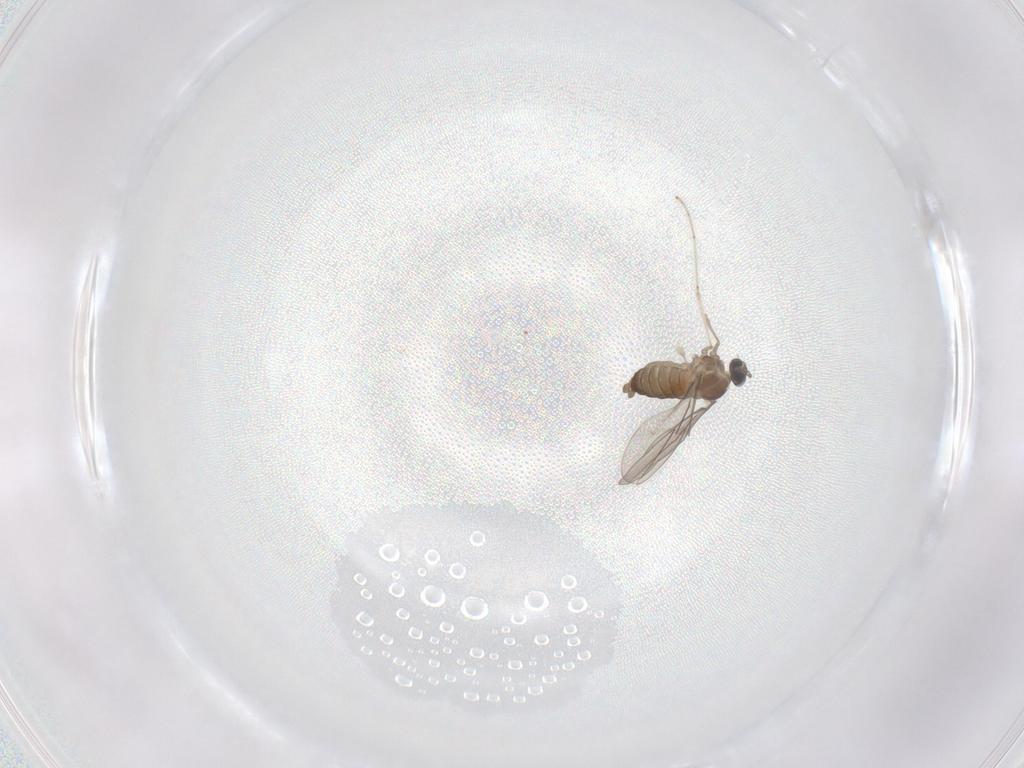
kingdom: Animalia
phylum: Arthropoda
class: Insecta
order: Diptera
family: Cecidomyiidae
